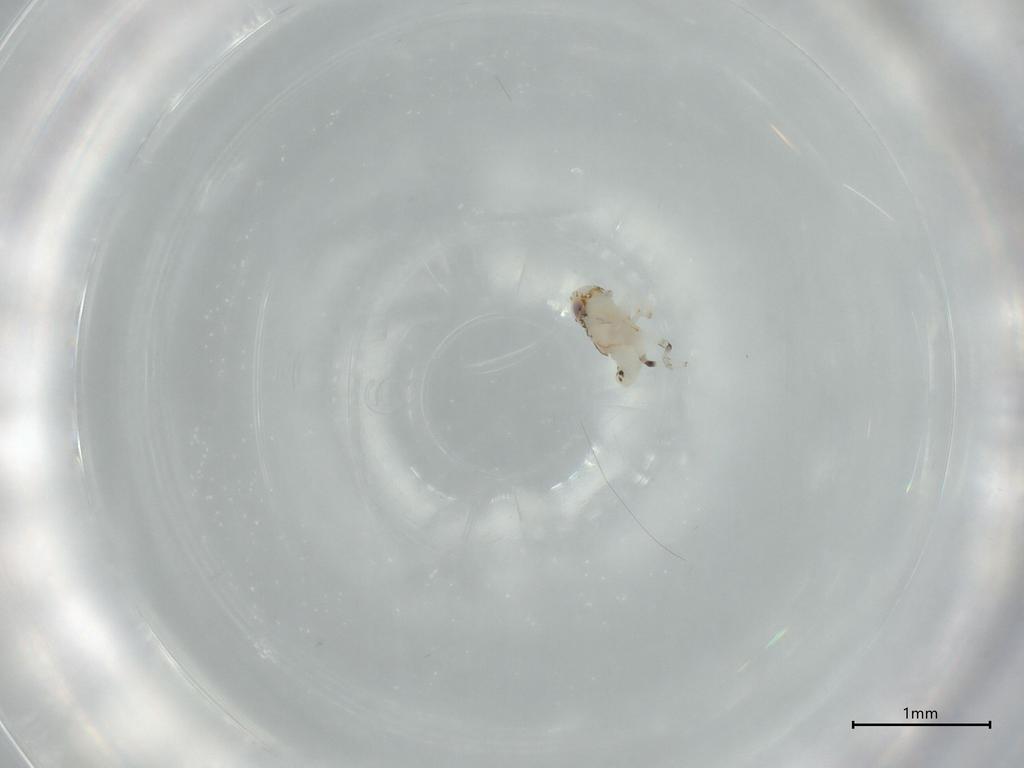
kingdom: Animalia
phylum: Arthropoda
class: Insecta
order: Hemiptera
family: Nogodinidae
